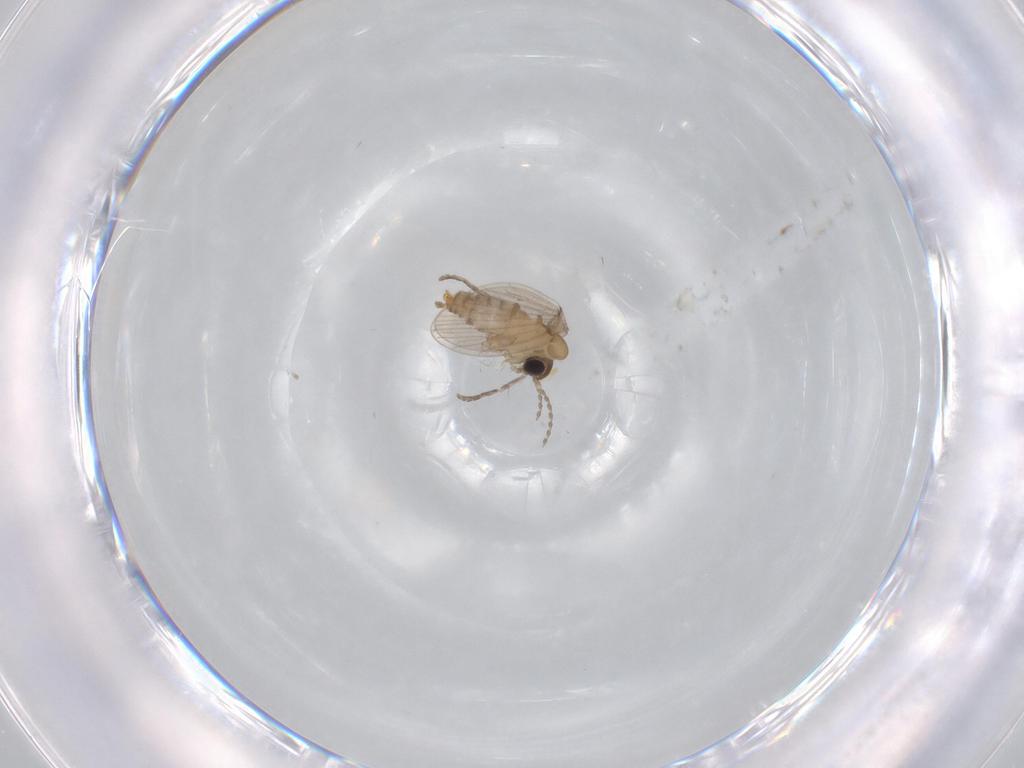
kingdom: Animalia
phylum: Arthropoda
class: Insecta
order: Diptera
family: Psychodidae
